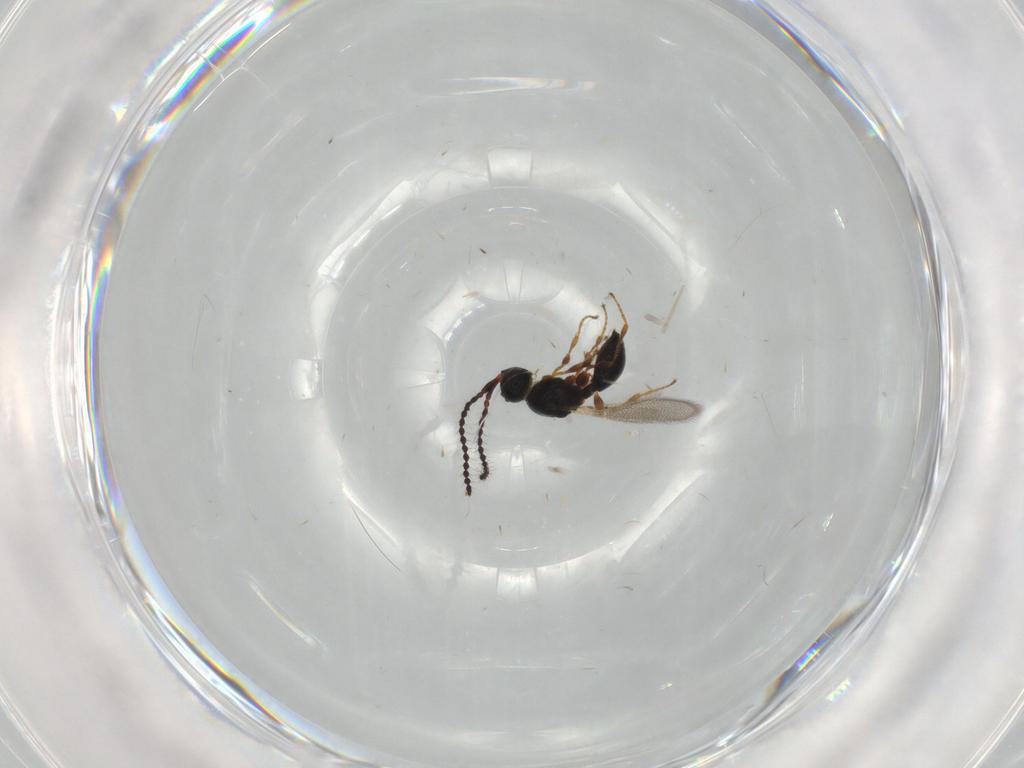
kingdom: Animalia
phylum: Arthropoda
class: Insecta
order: Hymenoptera
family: Diapriidae
